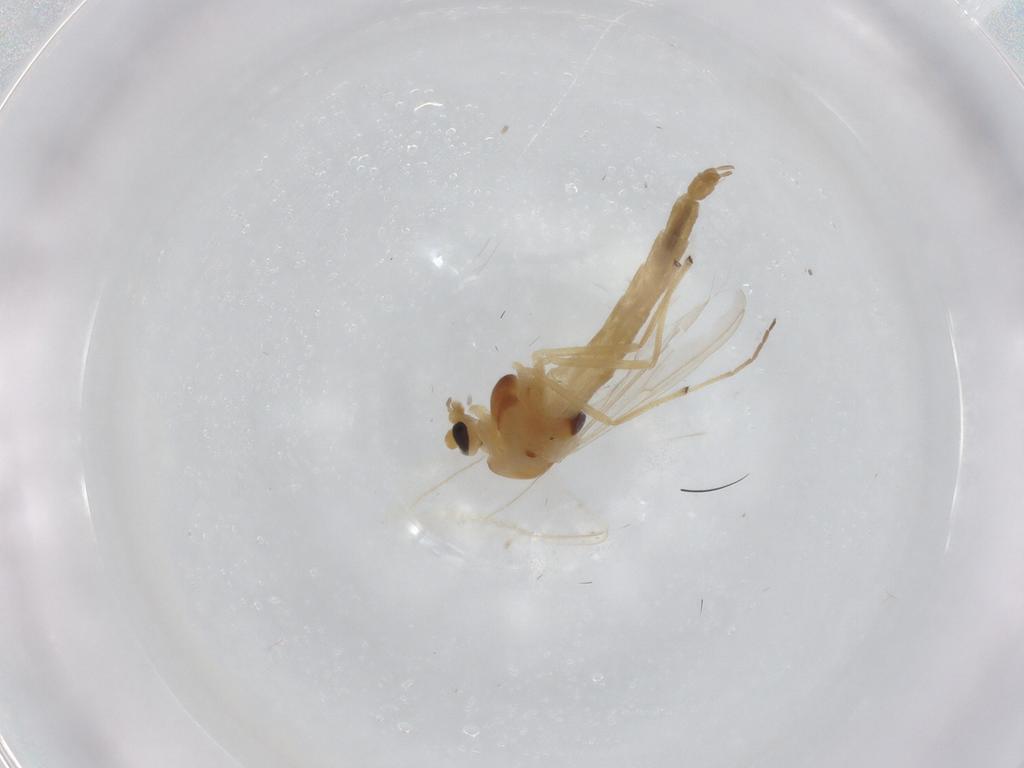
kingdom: Animalia
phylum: Arthropoda
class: Insecta
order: Diptera
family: Chironomidae
